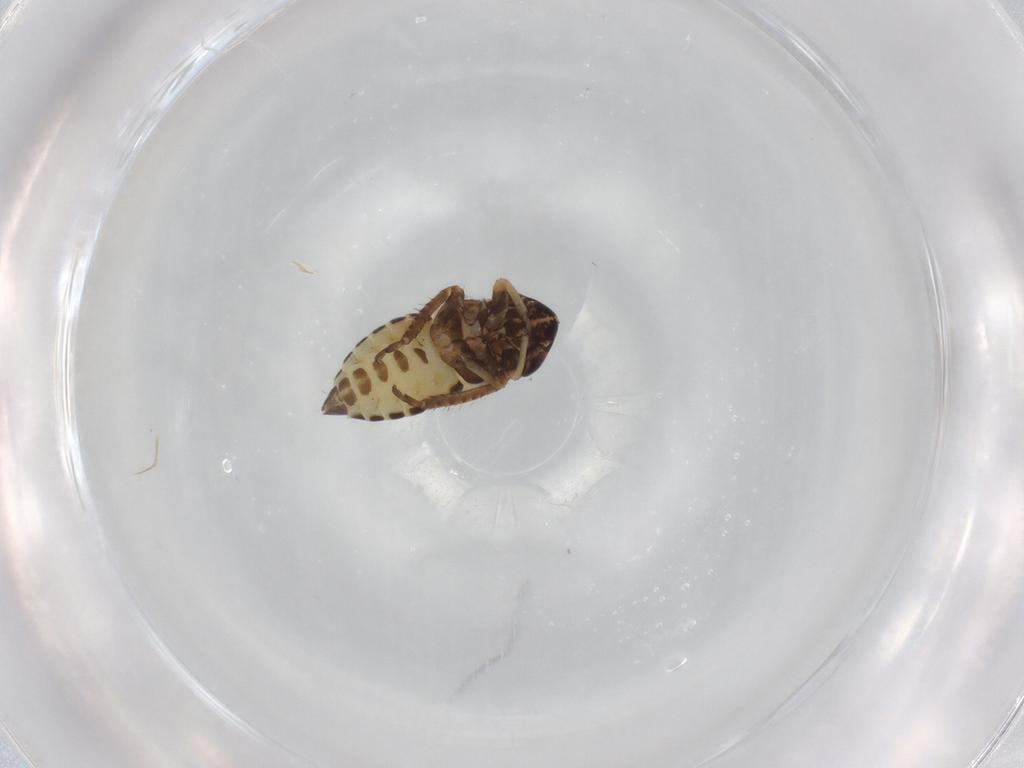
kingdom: Animalia
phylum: Arthropoda
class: Insecta
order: Hemiptera
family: Cicadellidae
